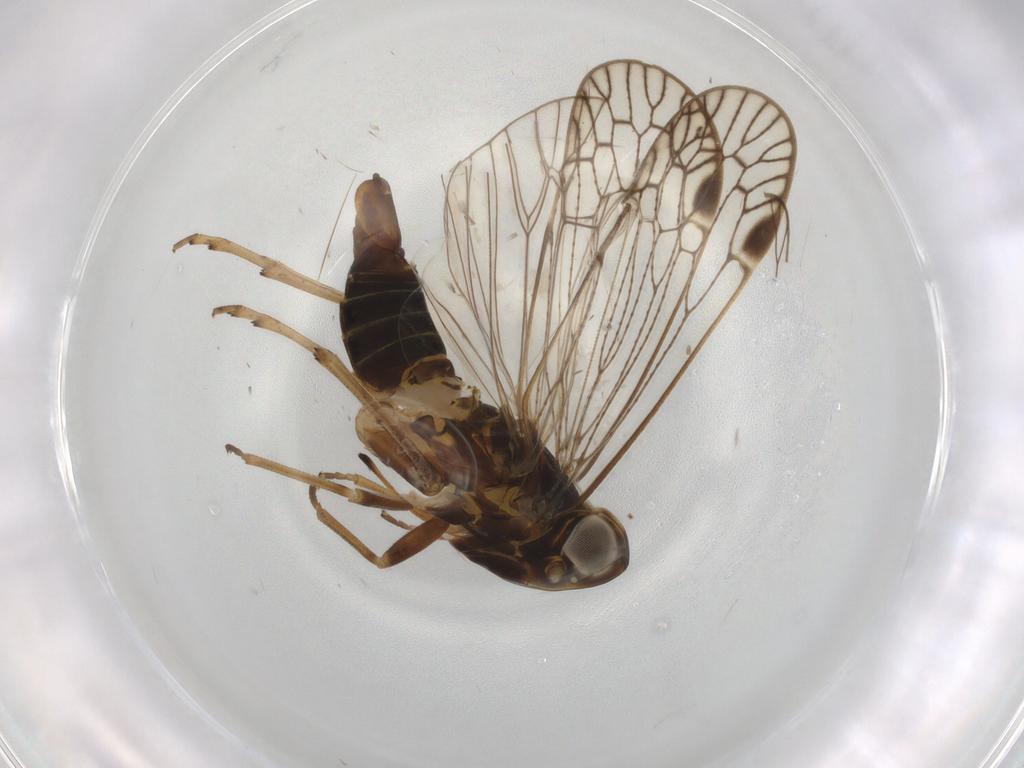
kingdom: Animalia
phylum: Arthropoda
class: Insecta
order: Hemiptera
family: Cixiidae
